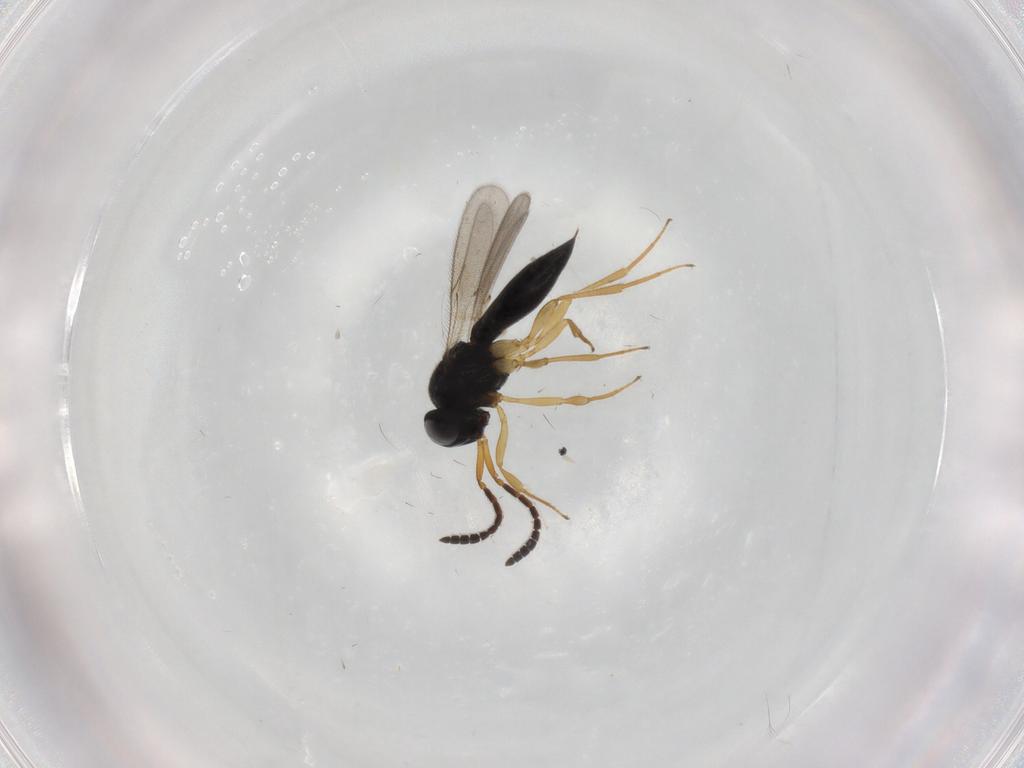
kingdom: Animalia
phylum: Arthropoda
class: Insecta
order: Hymenoptera
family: Scelionidae
